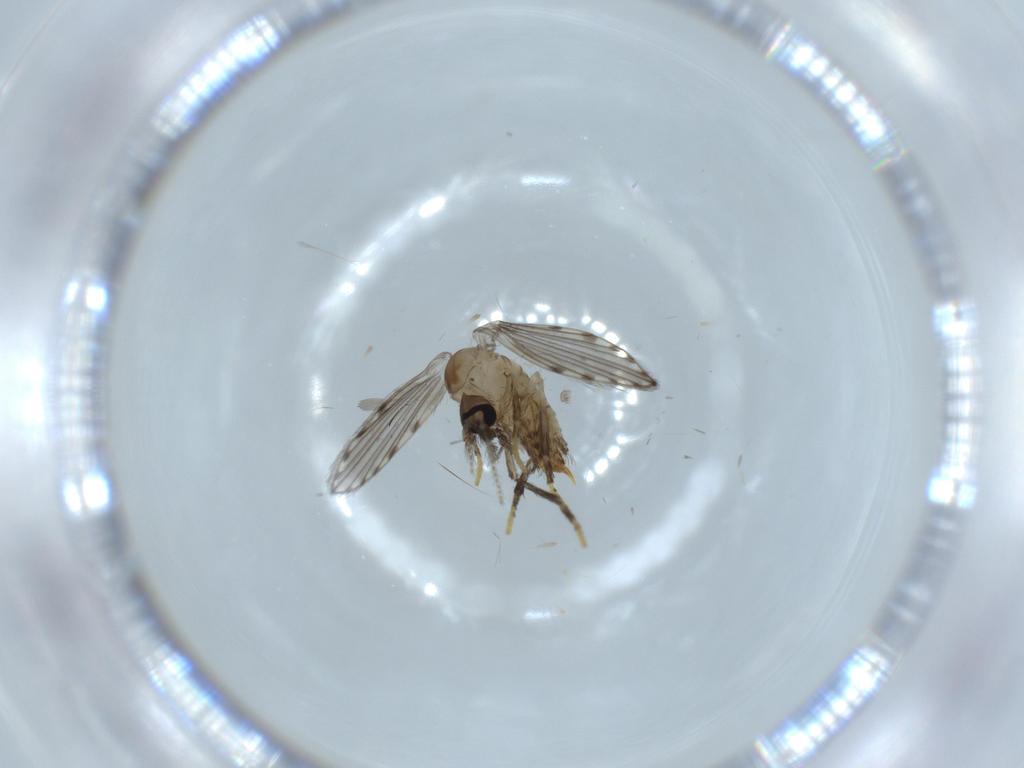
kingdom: Animalia
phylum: Arthropoda
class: Insecta
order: Diptera
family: Psychodidae
